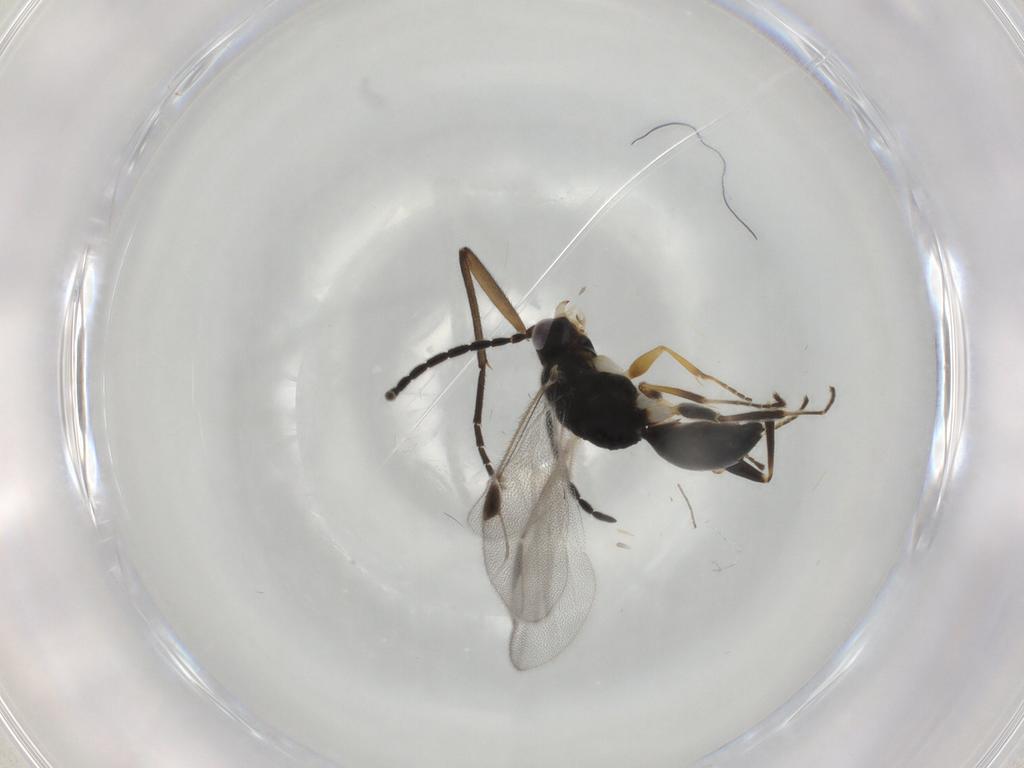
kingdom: Animalia
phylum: Arthropoda
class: Insecta
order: Hymenoptera
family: Dryinidae
